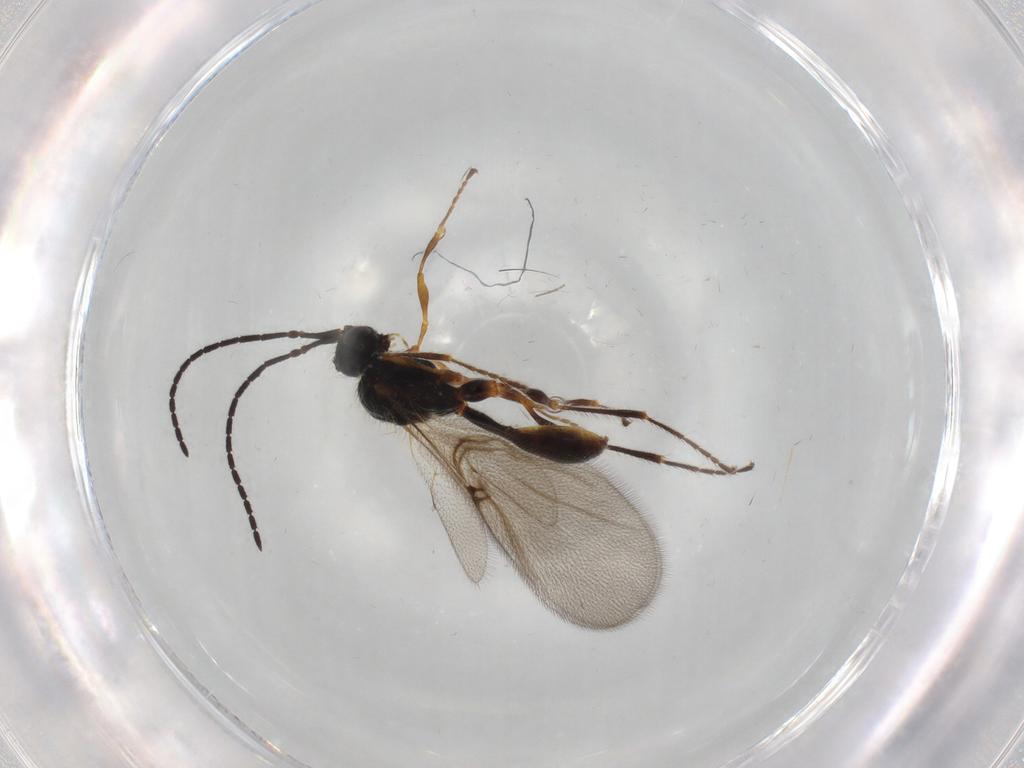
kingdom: Animalia
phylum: Arthropoda
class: Insecta
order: Hymenoptera
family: Diapriidae
